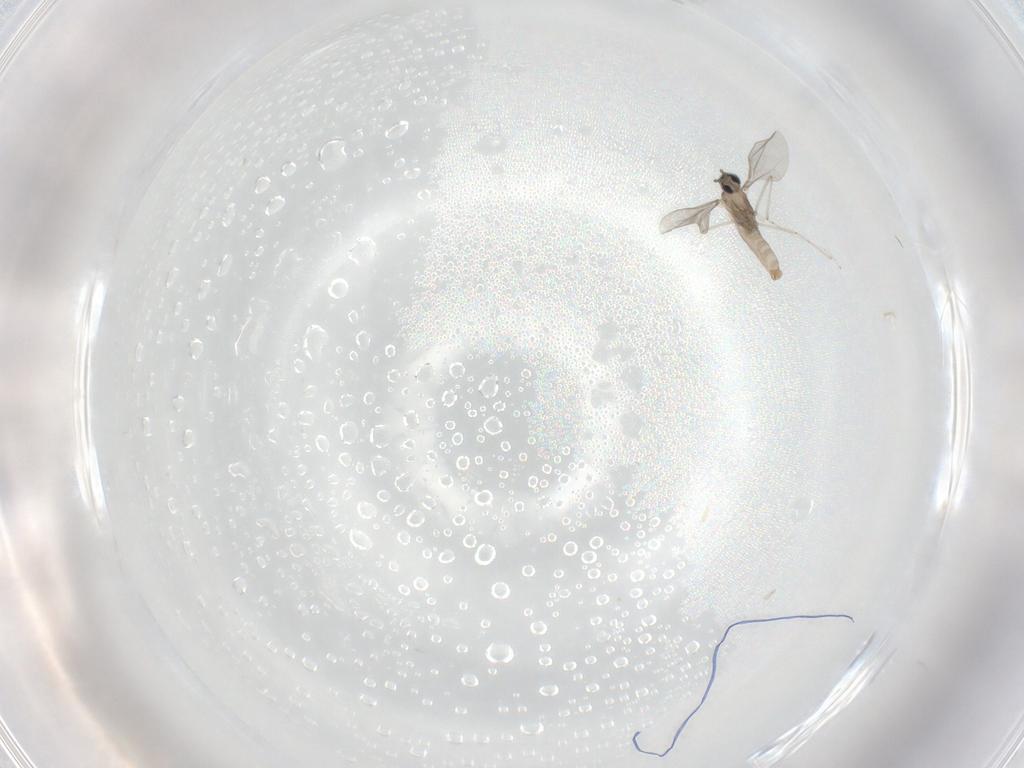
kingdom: Animalia
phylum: Arthropoda
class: Insecta
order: Diptera
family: Cecidomyiidae
